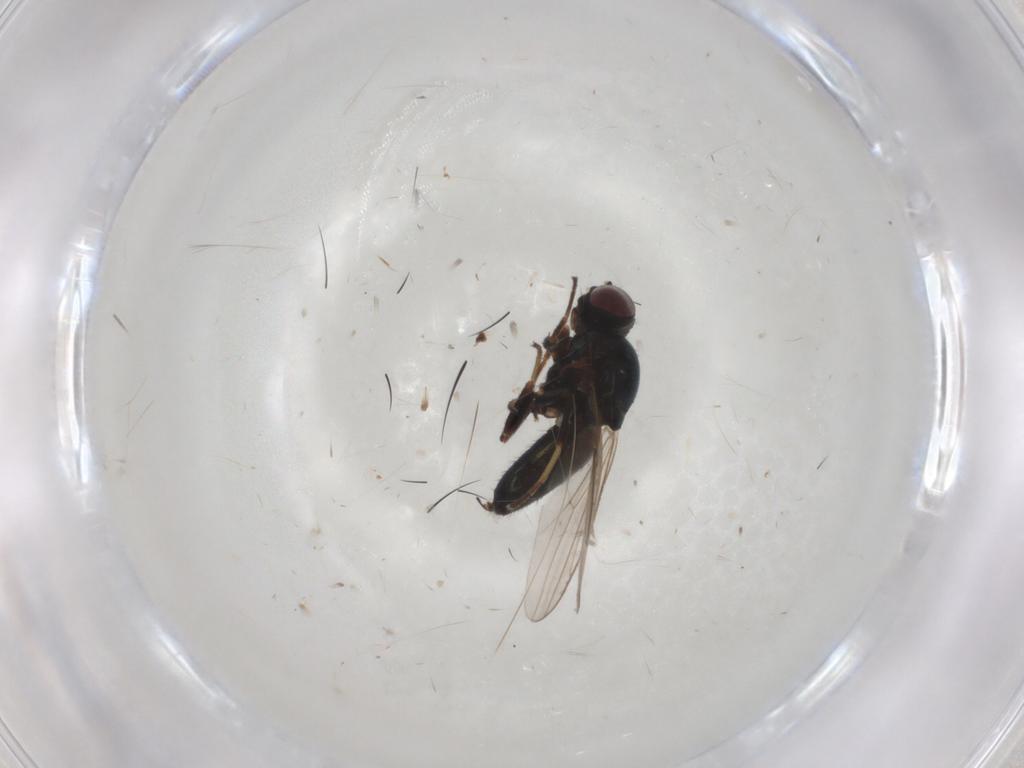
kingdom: Animalia
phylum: Arthropoda
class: Insecta
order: Diptera
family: Chloropidae
